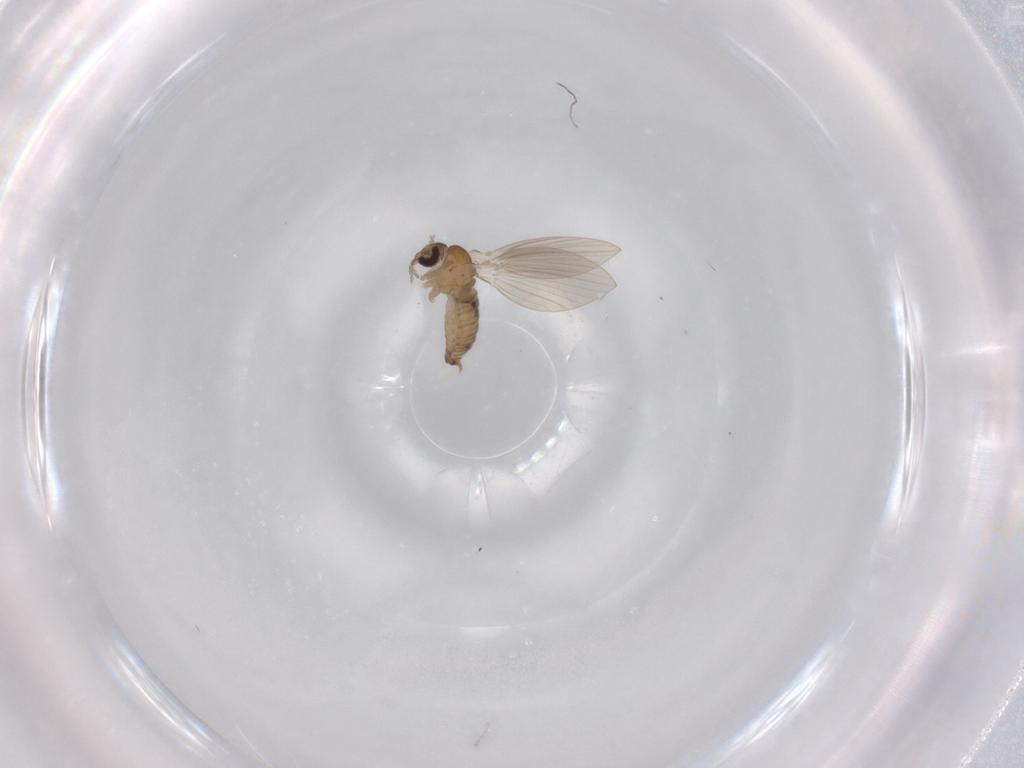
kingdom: Animalia
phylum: Arthropoda
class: Insecta
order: Diptera
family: Psychodidae
